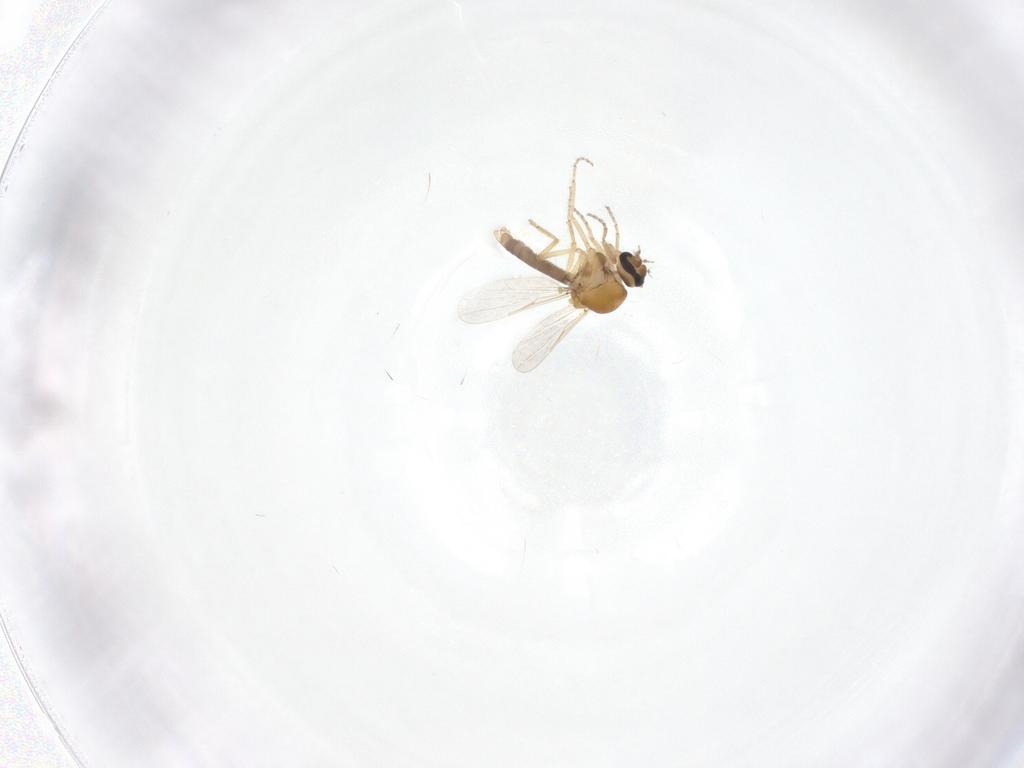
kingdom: Animalia
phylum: Arthropoda
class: Insecta
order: Diptera
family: Ceratopogonidae
